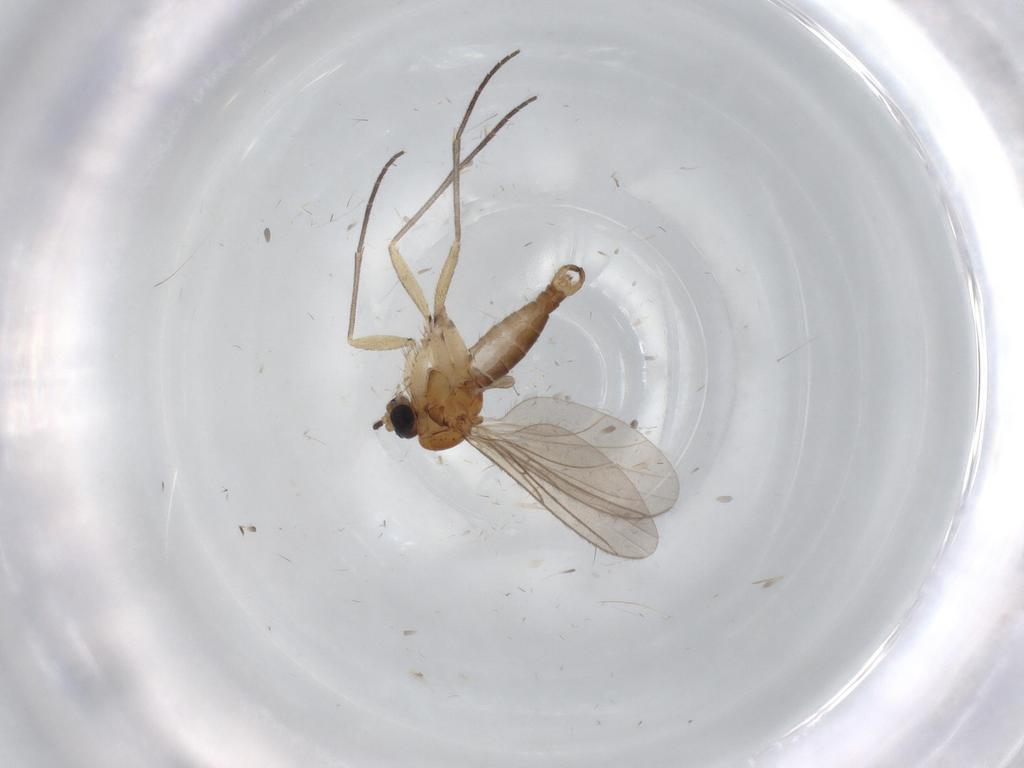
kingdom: Animalia
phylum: Arthropoda
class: Insecta
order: Diptera
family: Sciaridae
